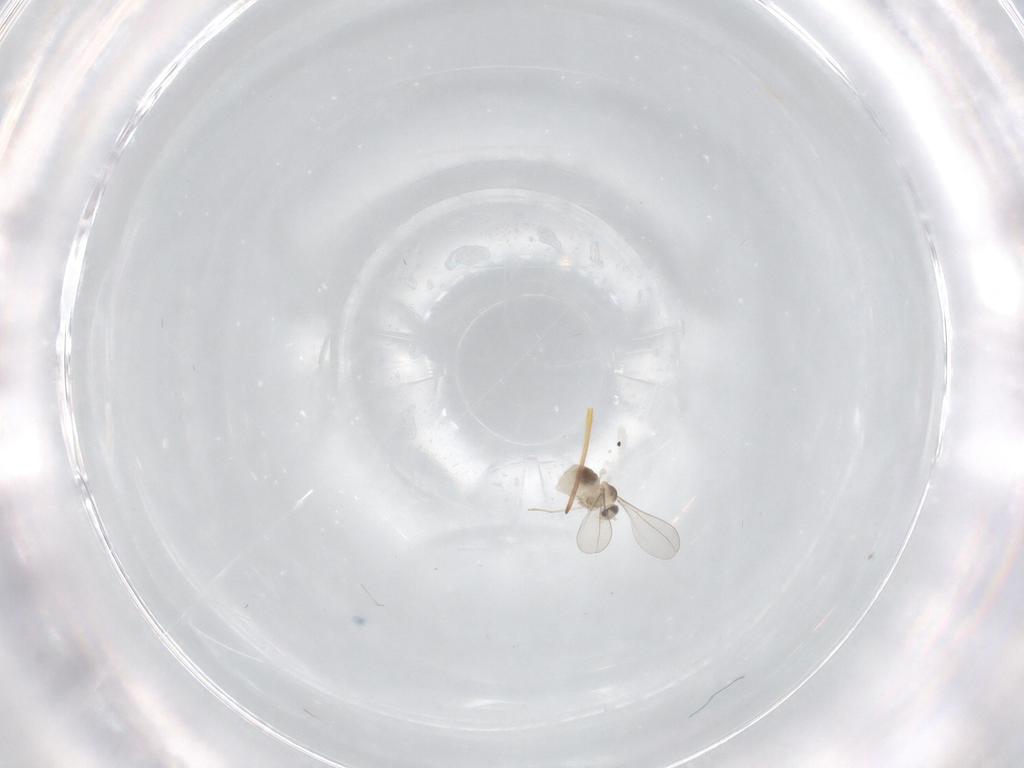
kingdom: Animalia
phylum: Arthropoda
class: Insecta
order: Diptera
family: Cecidomyiidae
